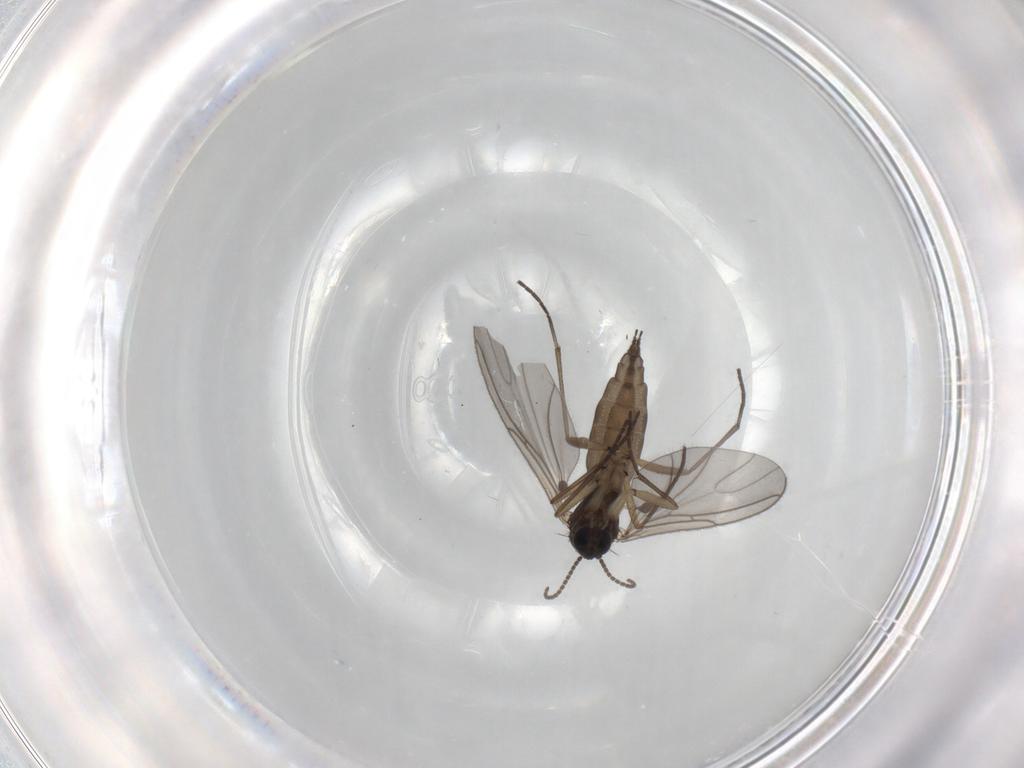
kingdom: Animalia
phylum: Arthropoda
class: Insecta
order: Diptera
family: Sciaridae
